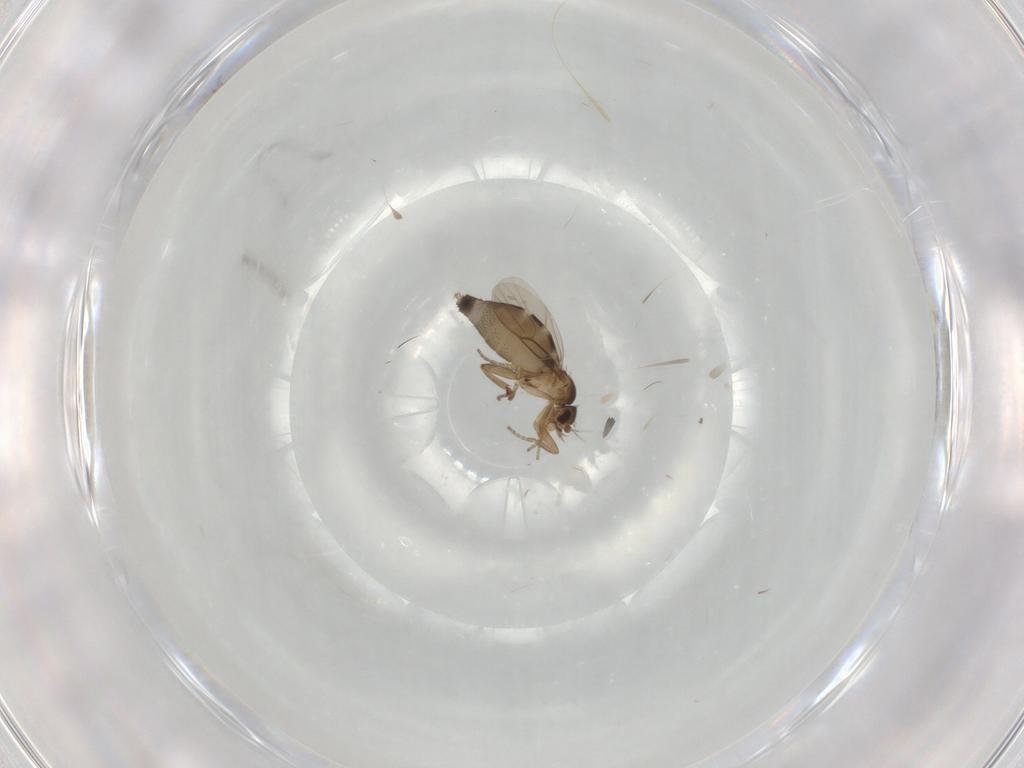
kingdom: Animalia
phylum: Arthropoda
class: Insecta
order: Diptera
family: Phoridae
